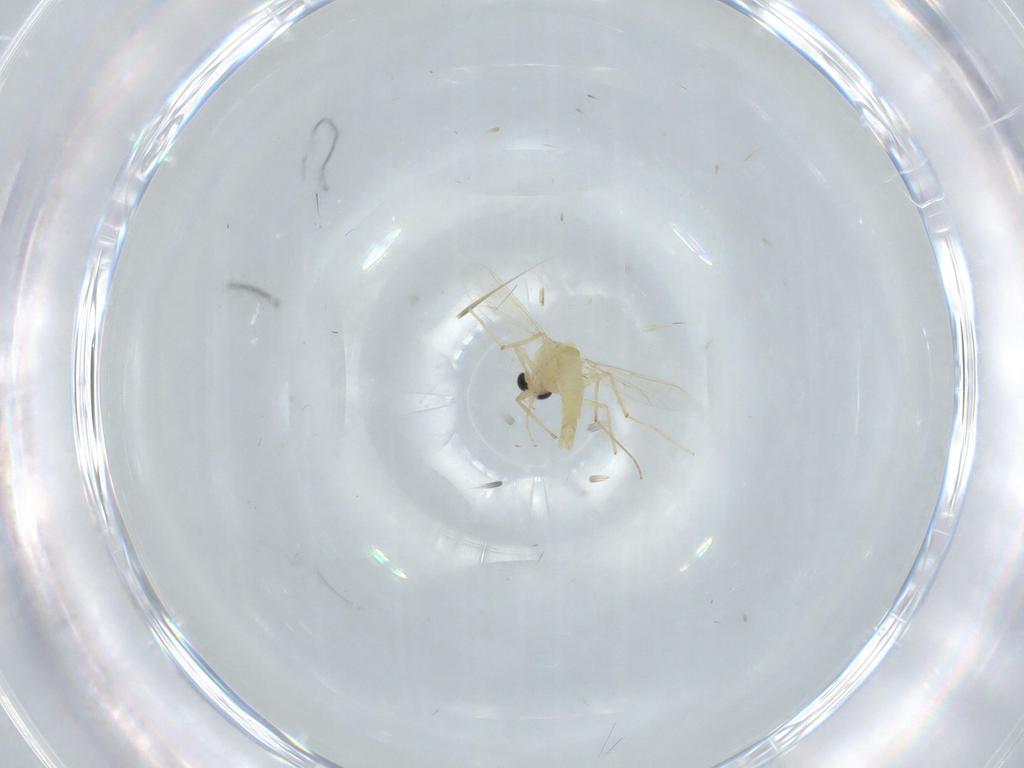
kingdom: Animalia
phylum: Arthropoda
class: Insecta
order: Diptera
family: Chironomidae
